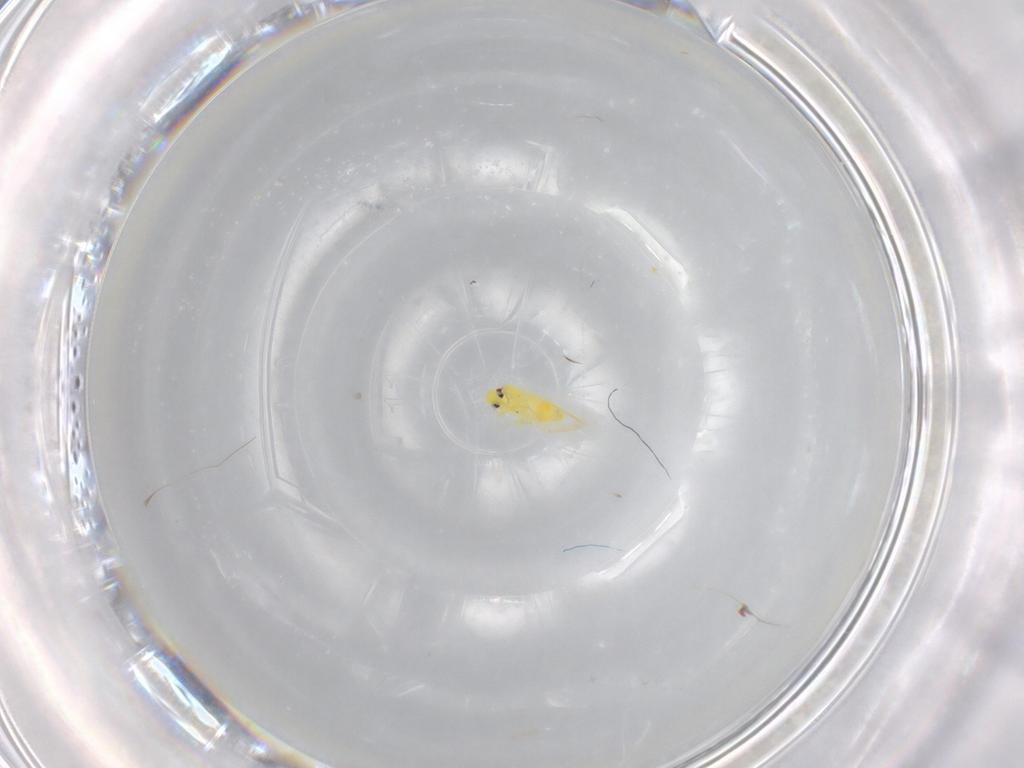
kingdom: Animalia
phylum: Arthropoda
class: Insecta
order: Hemiptera
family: Aleyrodidae
